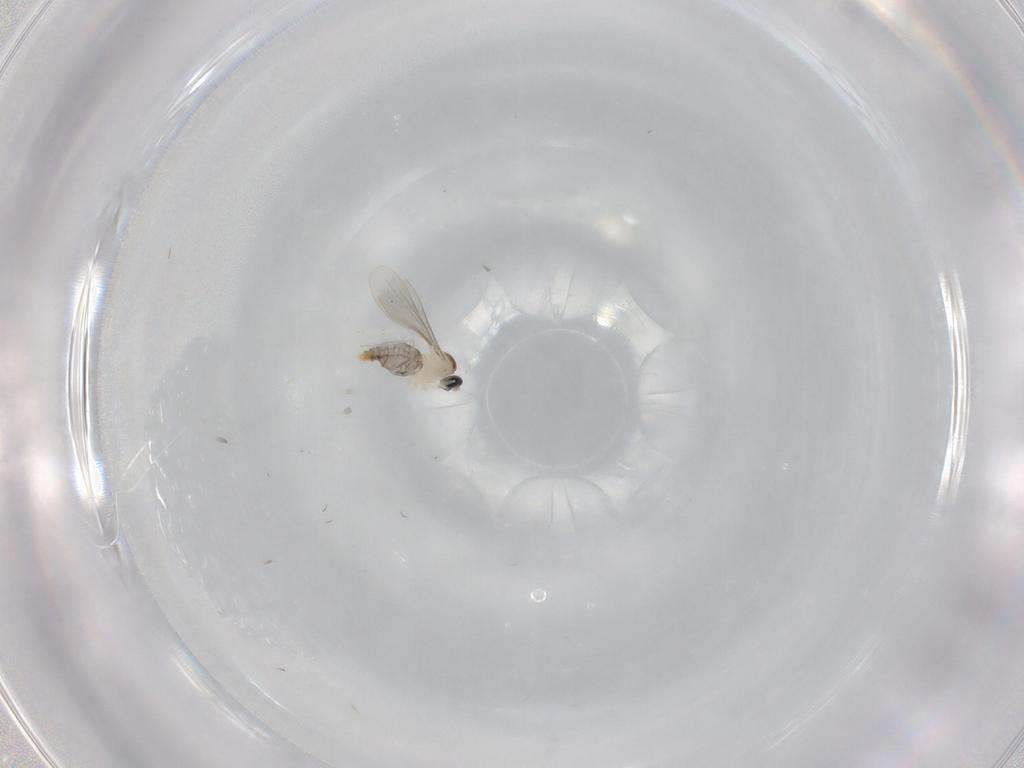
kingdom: Animalia
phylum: Arthropoda
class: Insecta
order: Diptera
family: Cecidomyiidae
